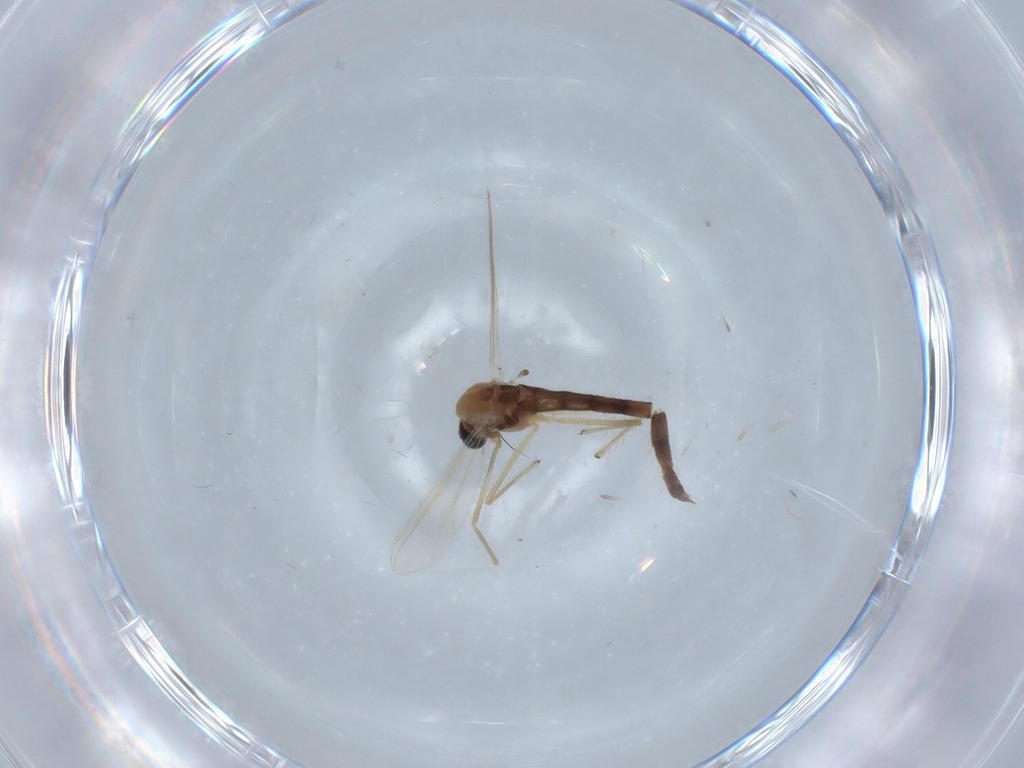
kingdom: Animalia
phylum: Arthropoda
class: Insecta
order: Diptera
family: Chironomidae
